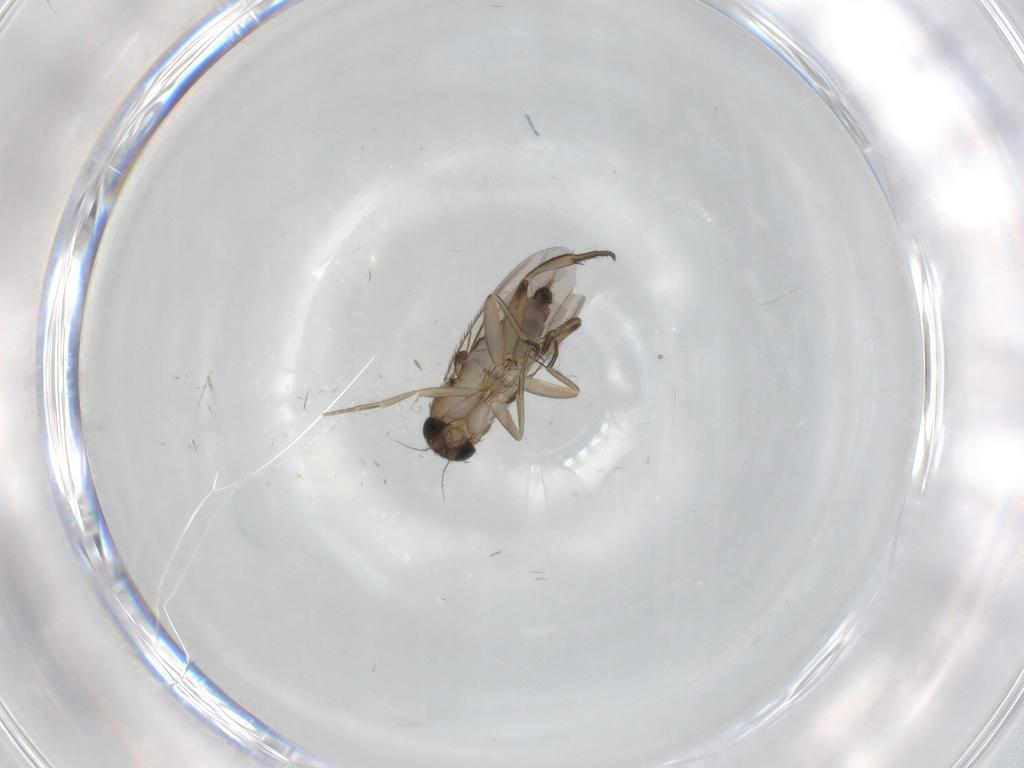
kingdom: Animalia
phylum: Arthropoda
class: Insecta
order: Diptera
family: Phoridae
